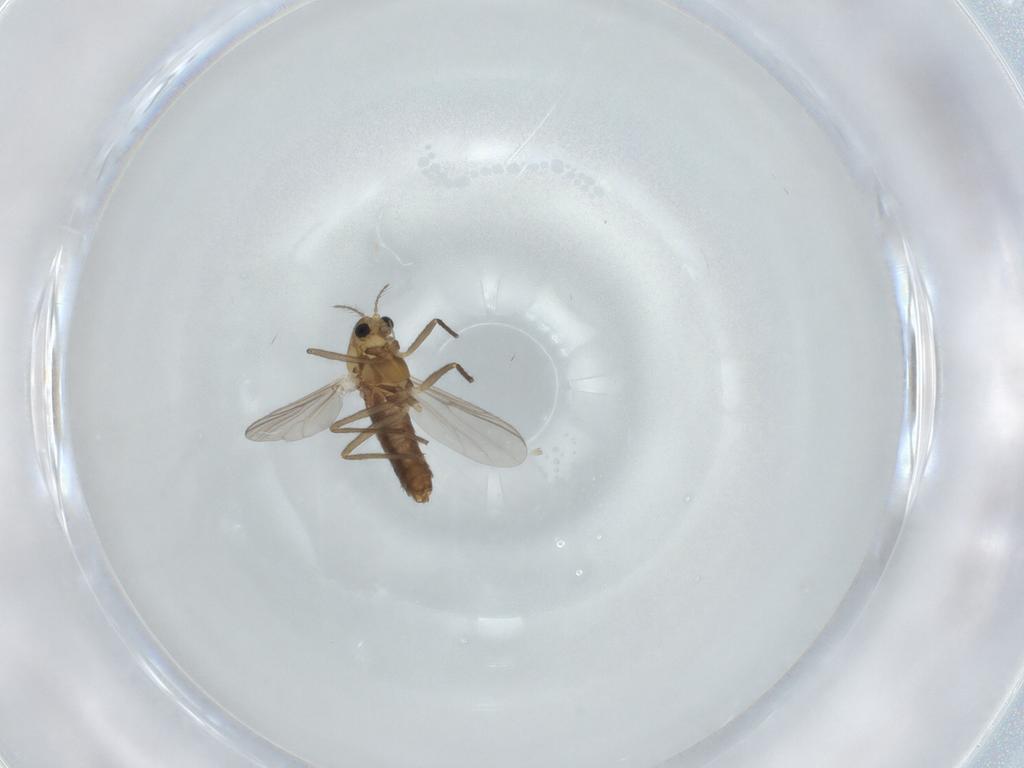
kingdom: Animalia
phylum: Arthropoda
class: Insecta
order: Diptera
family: Chironomidae
